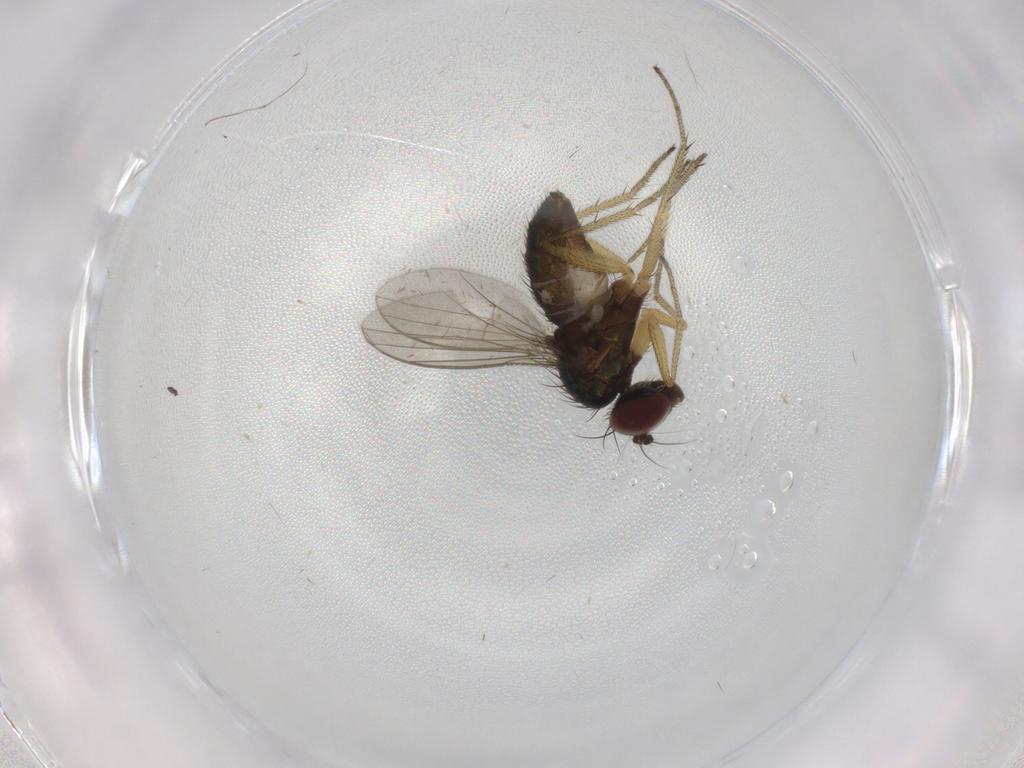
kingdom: Animalia
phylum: Arthropoda
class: Insecta
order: Diptera
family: Dolichopodidae
